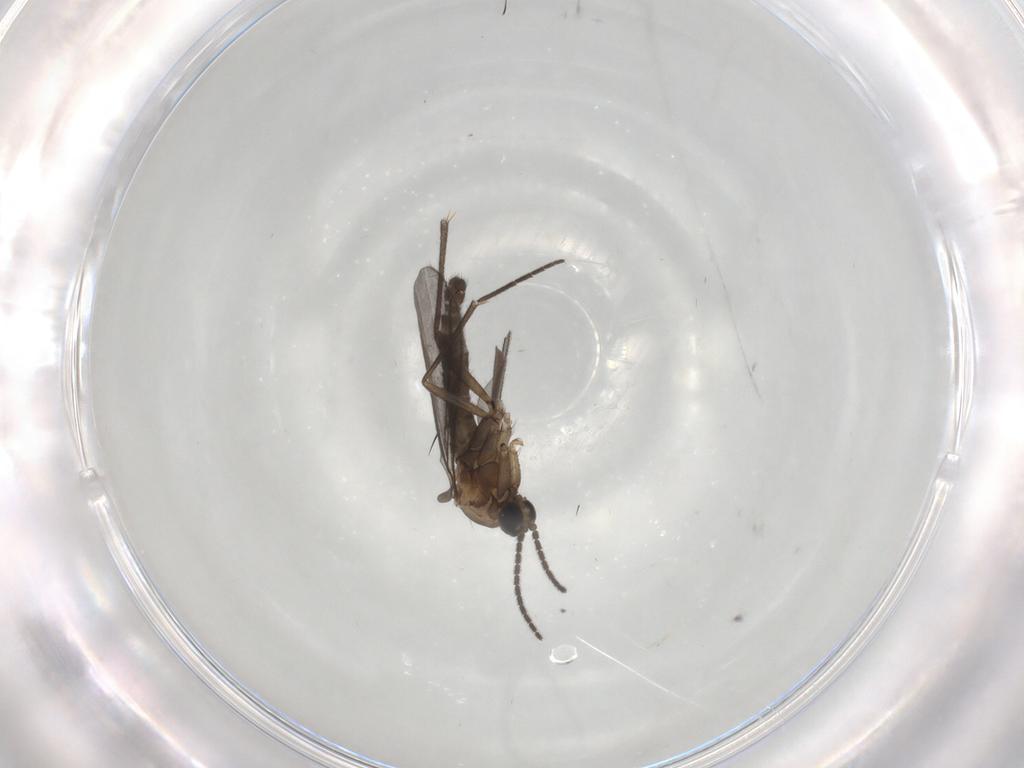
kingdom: Animalia
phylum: Arthropoda
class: Insecta
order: Diptera
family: Sciaridae
